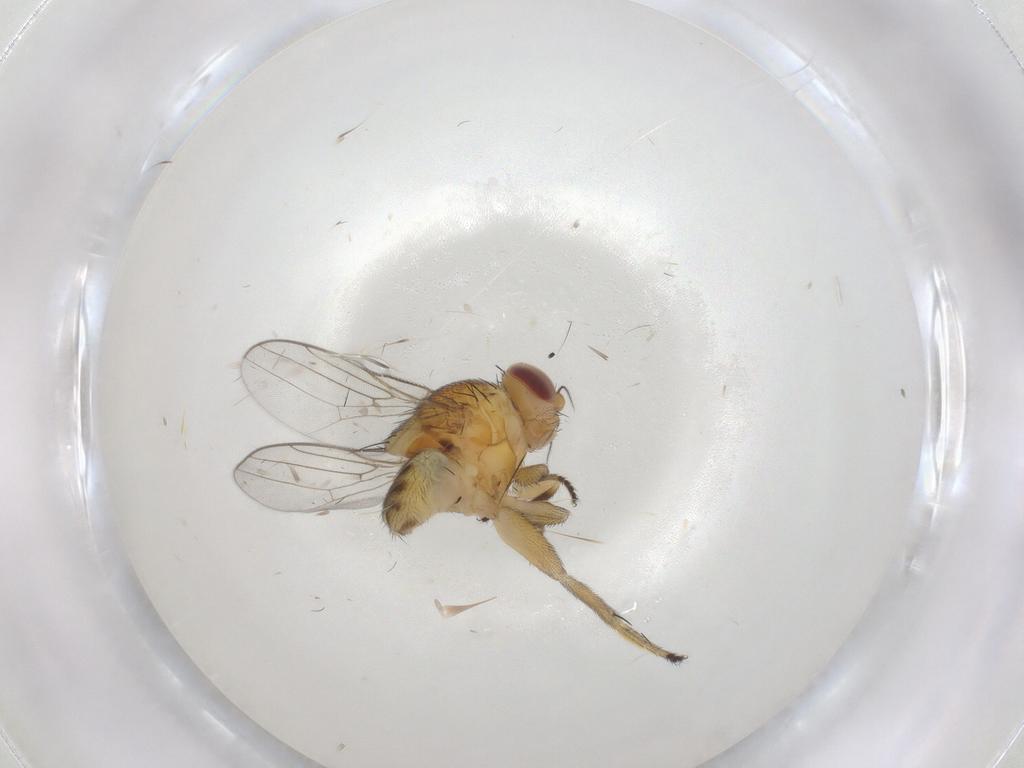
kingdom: Animalia
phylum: Arthropoda
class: Insecta
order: Diptera
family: Chloropidae
